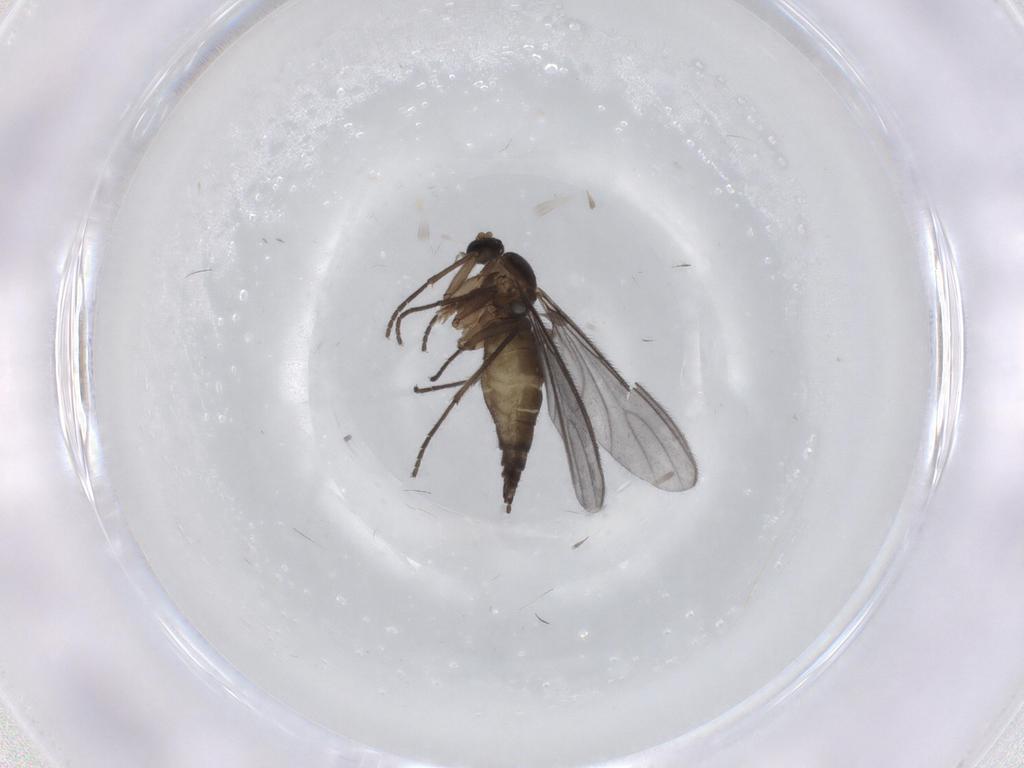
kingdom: Animalia
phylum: Arthropoda
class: Insecta
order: Diptera
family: Sciaridae
